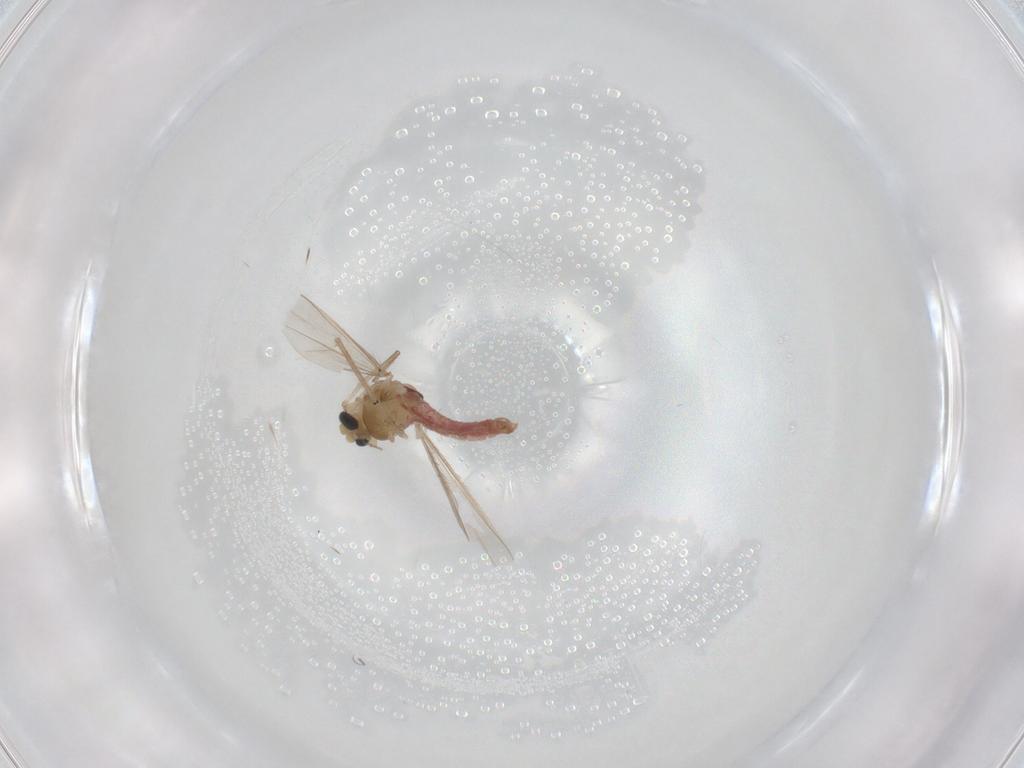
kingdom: Animalia
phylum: Arthropoda
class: Insecta
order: Diptera
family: Chironomidae
